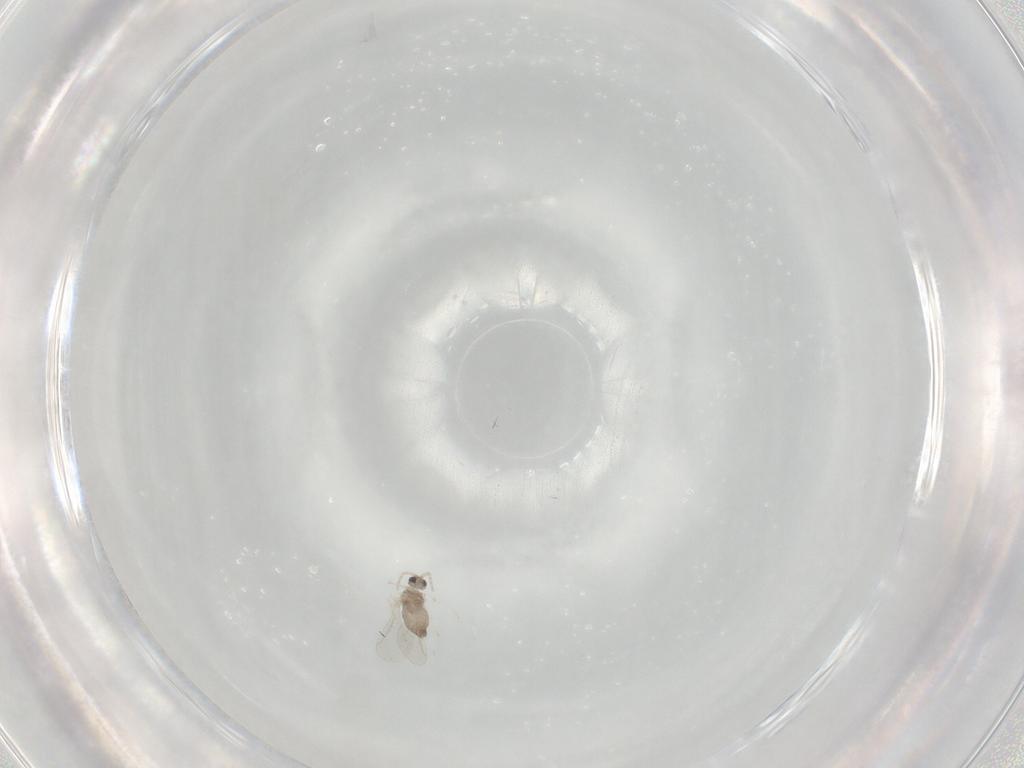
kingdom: Animalia
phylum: Arthropoda
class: Insecta
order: Diptera
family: Cecidomyiidae
